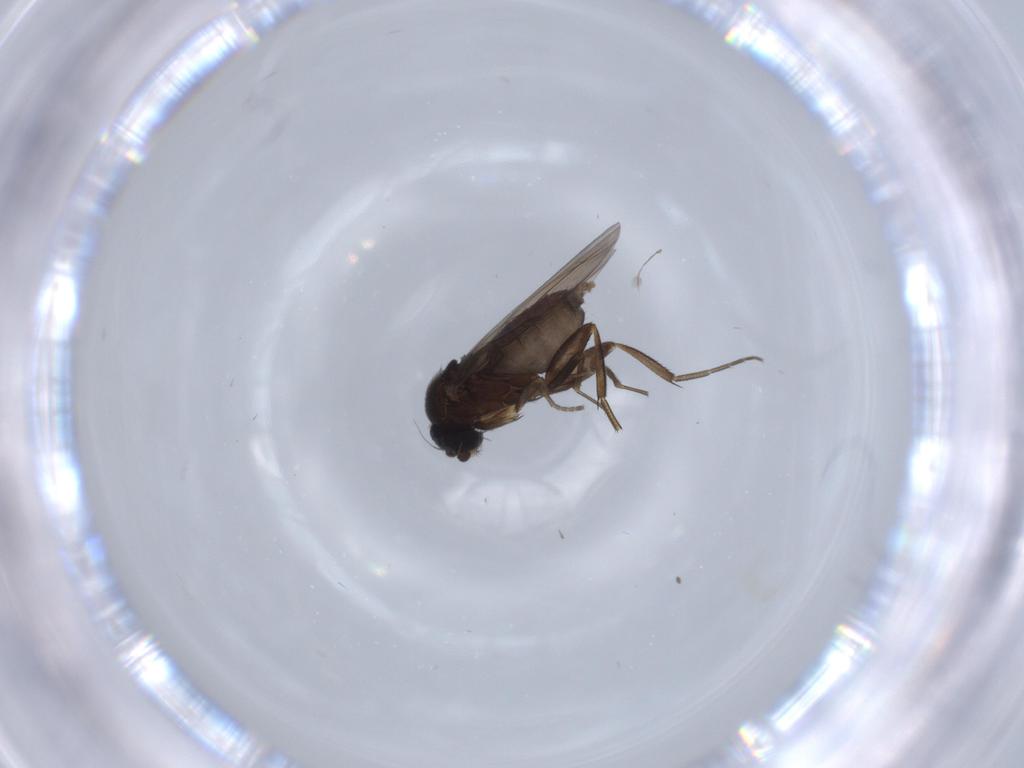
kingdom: Animalia
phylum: Arthropoda
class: Insecta
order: Diptera
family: Phoridae
